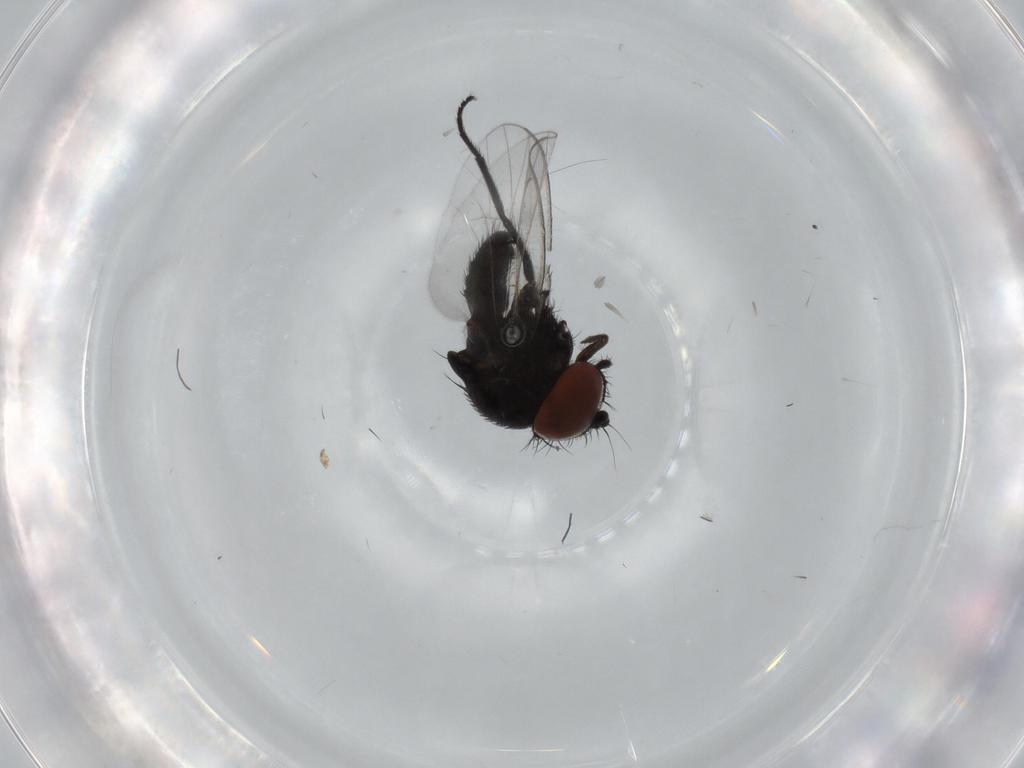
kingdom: Animalia
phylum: Arthropoda
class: Insecta
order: Diptera
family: Milichiidae
